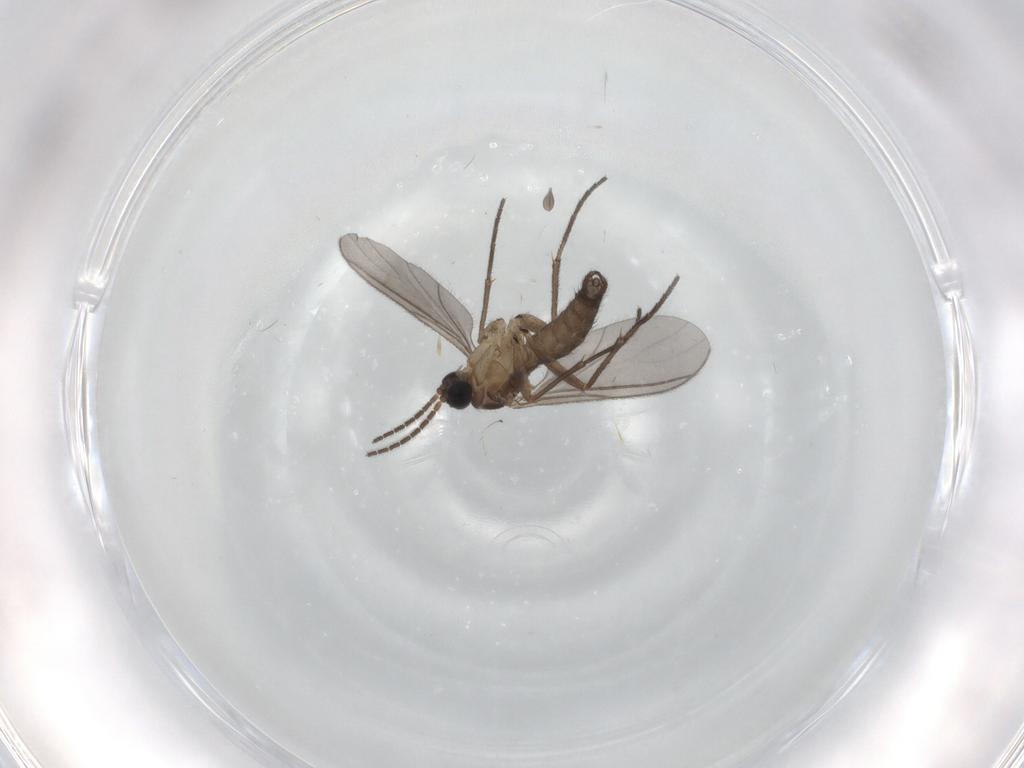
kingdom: Animalia
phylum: Arthropoda
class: Insecta
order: Diptera
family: Sciaridae
